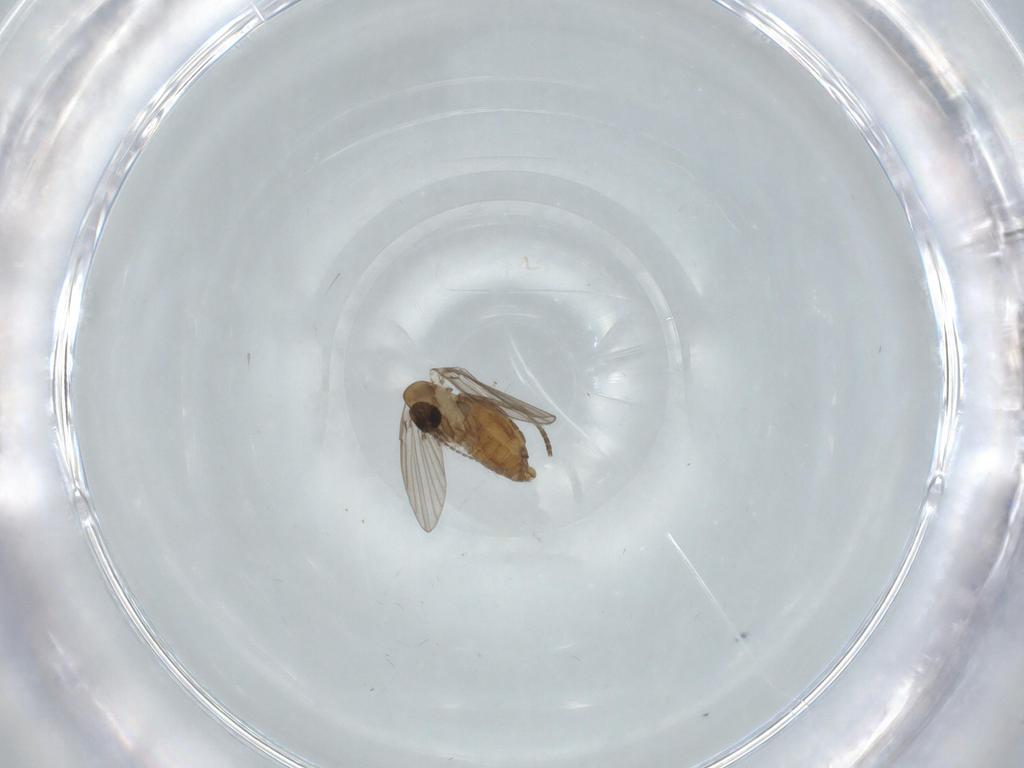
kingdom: Animalia
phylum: Arthropoda
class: Insecta
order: Diptera
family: Psychodidae
